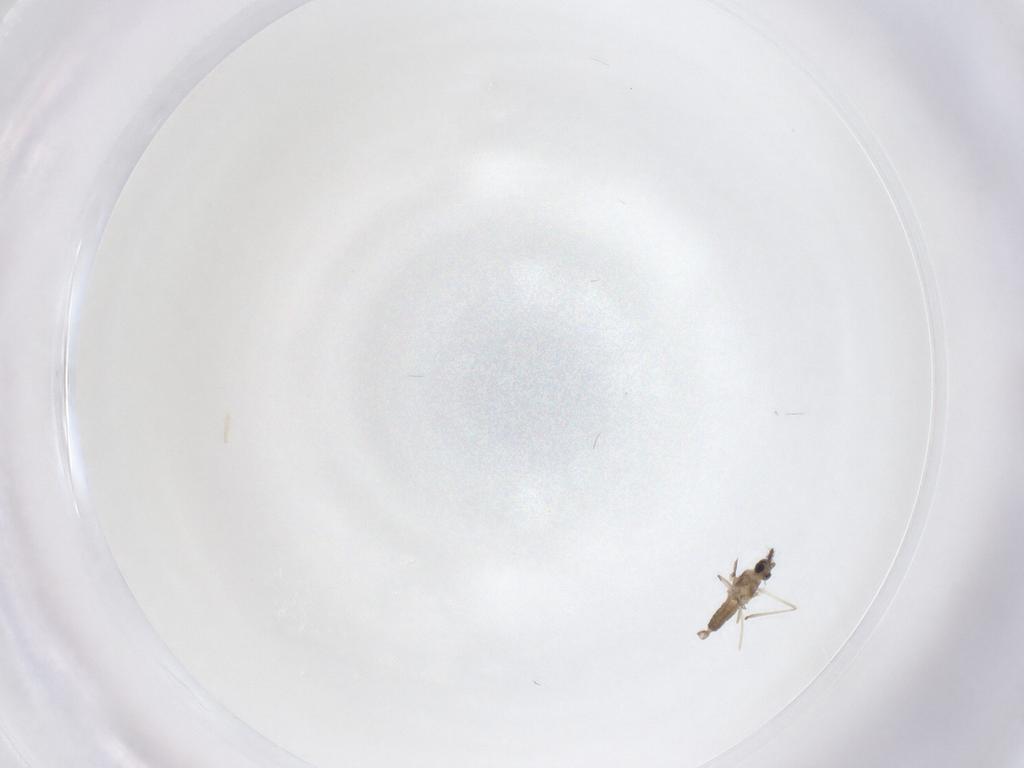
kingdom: Animalia
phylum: Arthropoda
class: Insecta
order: Diptera
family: Cecidomyiidae
